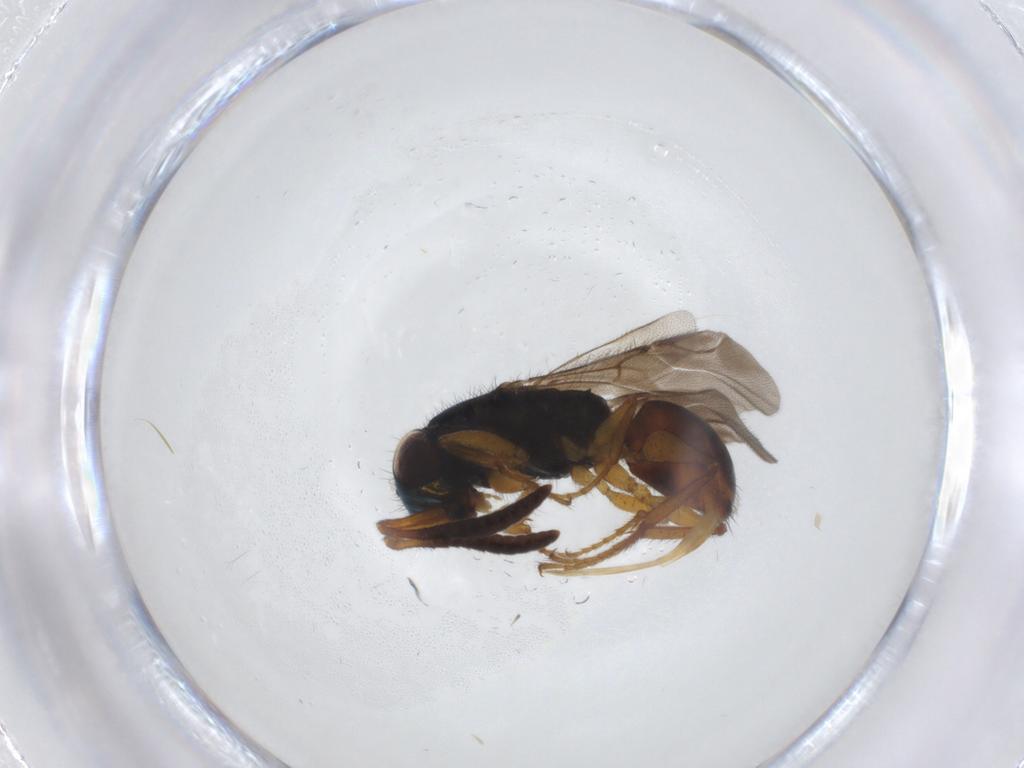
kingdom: Animalia
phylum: Arthropoda
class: Insecta
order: Hymenoptera
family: Chrysididae
